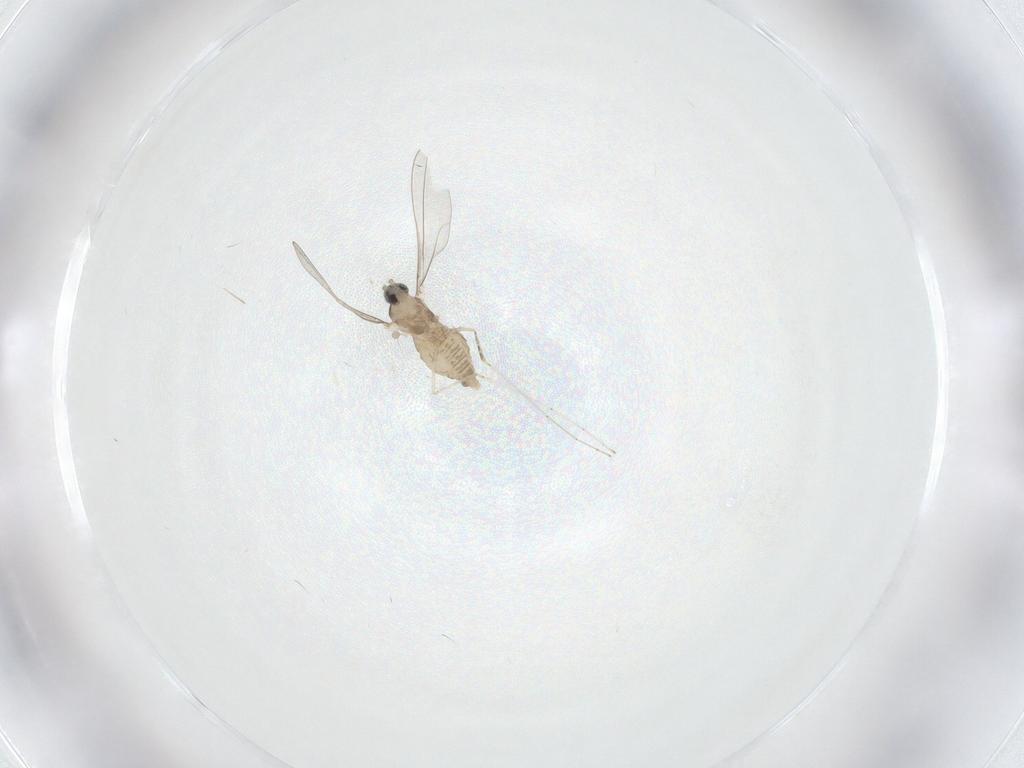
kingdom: Animalia
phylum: Arthropoda
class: Insecta
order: Diptera
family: Cecidomyiidae
